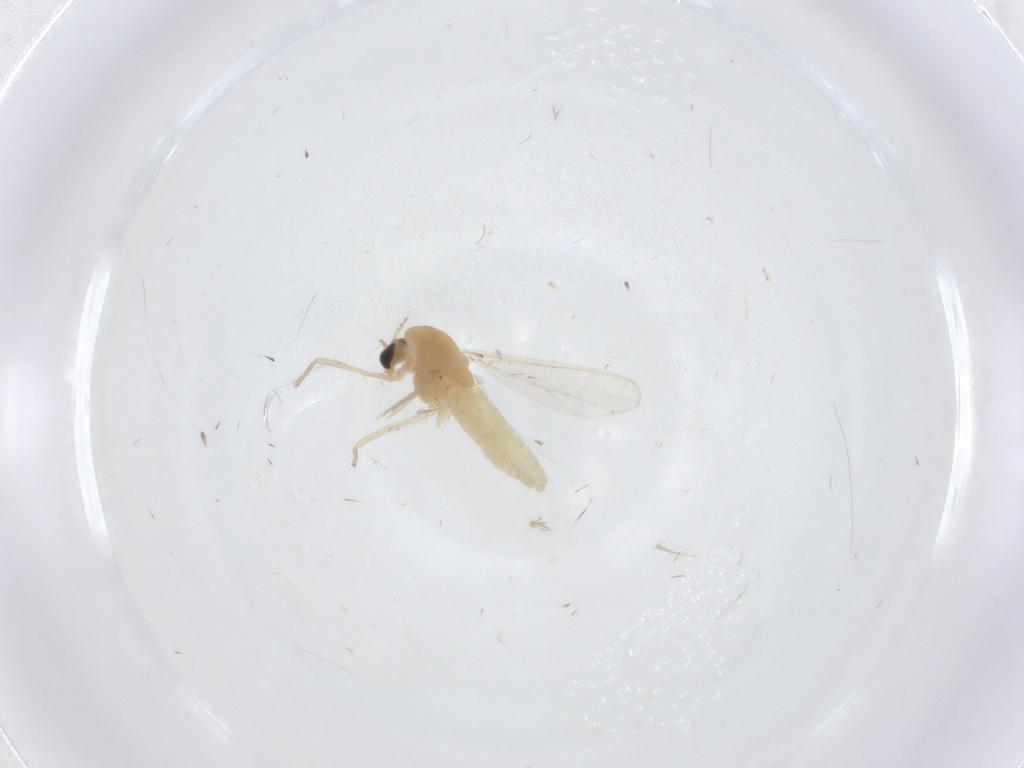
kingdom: Animalia
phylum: Arthropoda
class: Insecta
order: Diptera
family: Chironomidae
